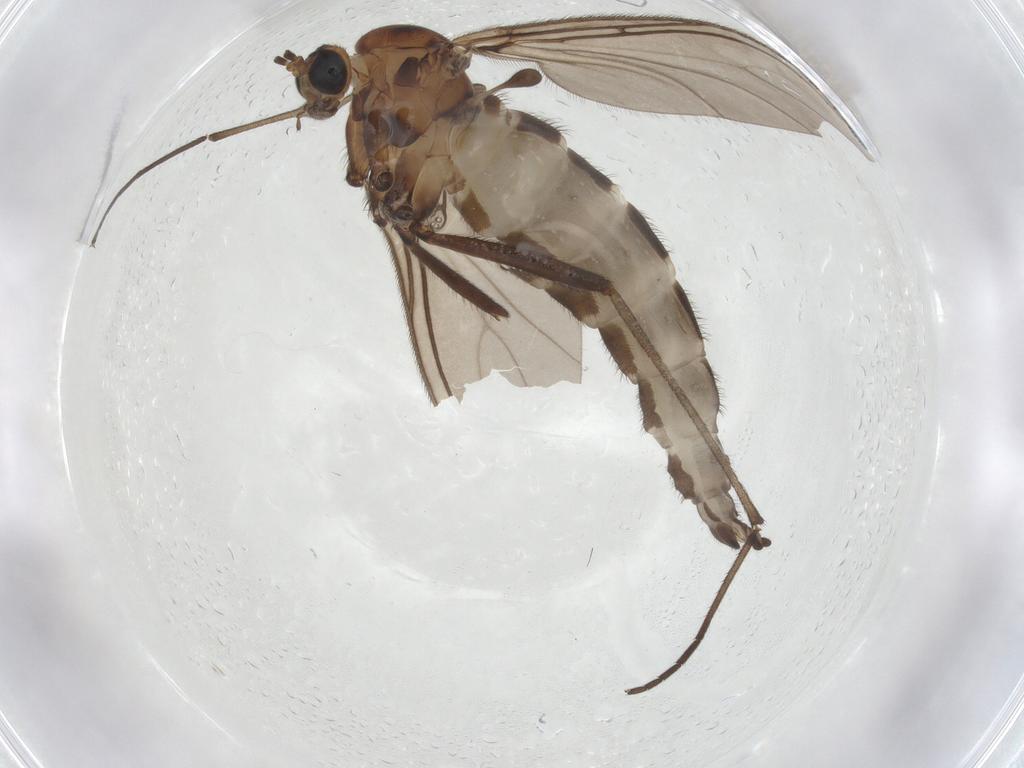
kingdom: Animalia
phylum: Arthropoda
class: Insecta
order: Diptera
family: Sciaridae
